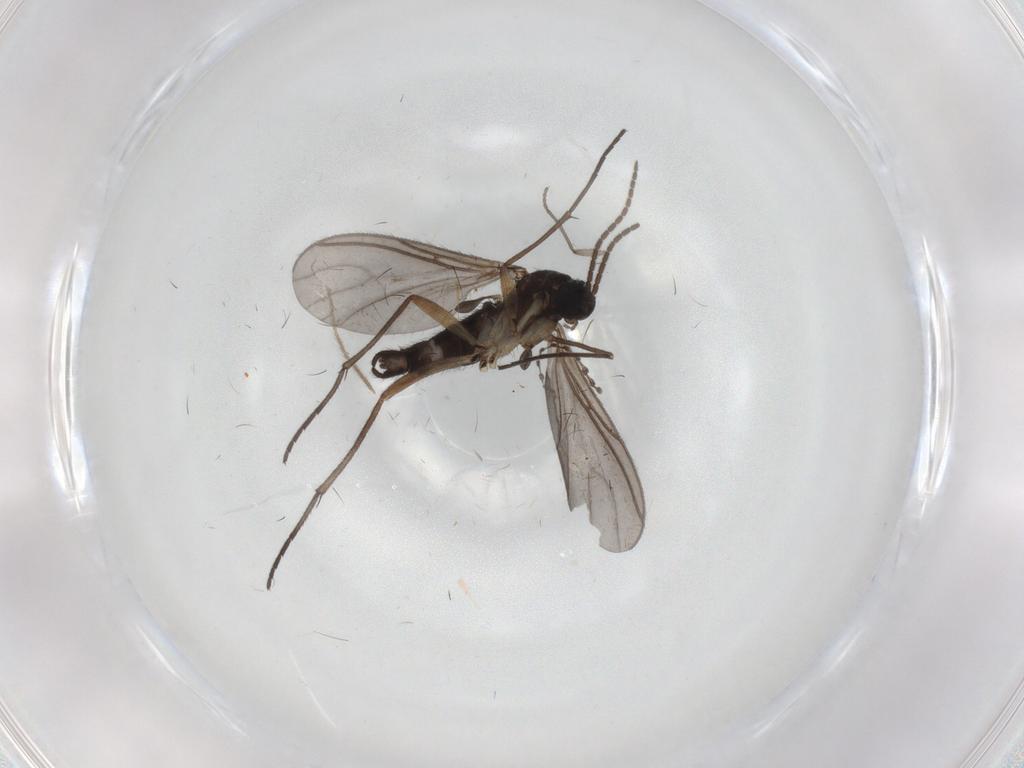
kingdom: Animalia
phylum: Arthropoda
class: Insecta
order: Diptera
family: Sciaridae
